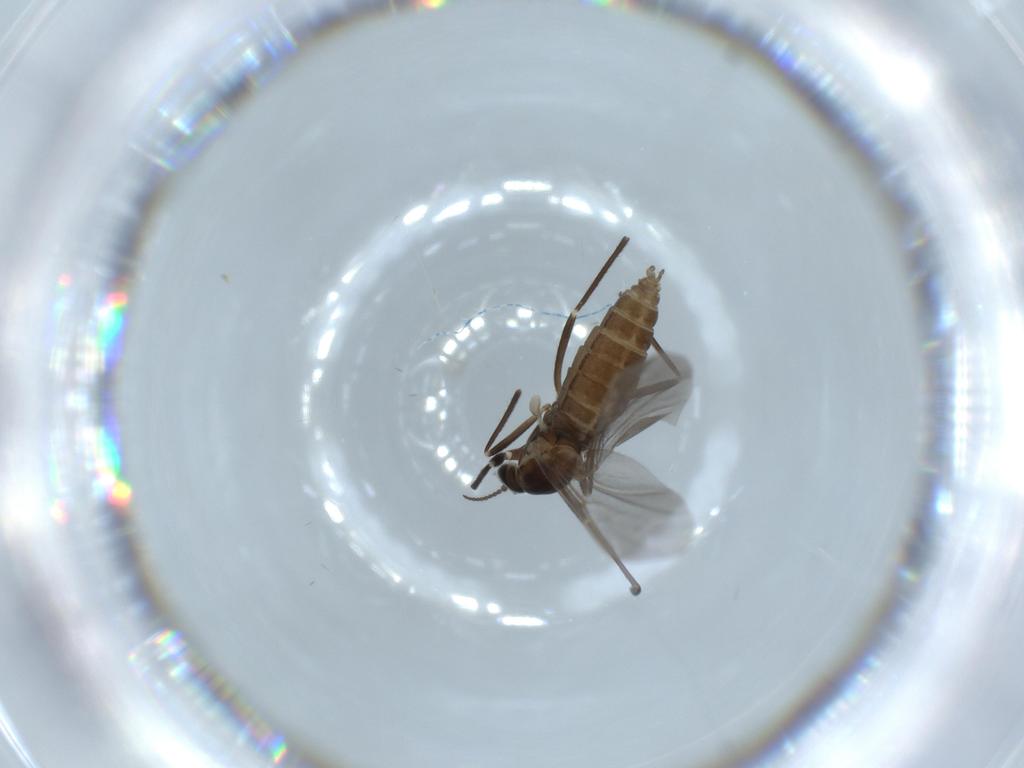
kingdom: Animalia
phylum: Arthropoda
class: Insecta
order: Diptera
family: Cecidomyiidae
